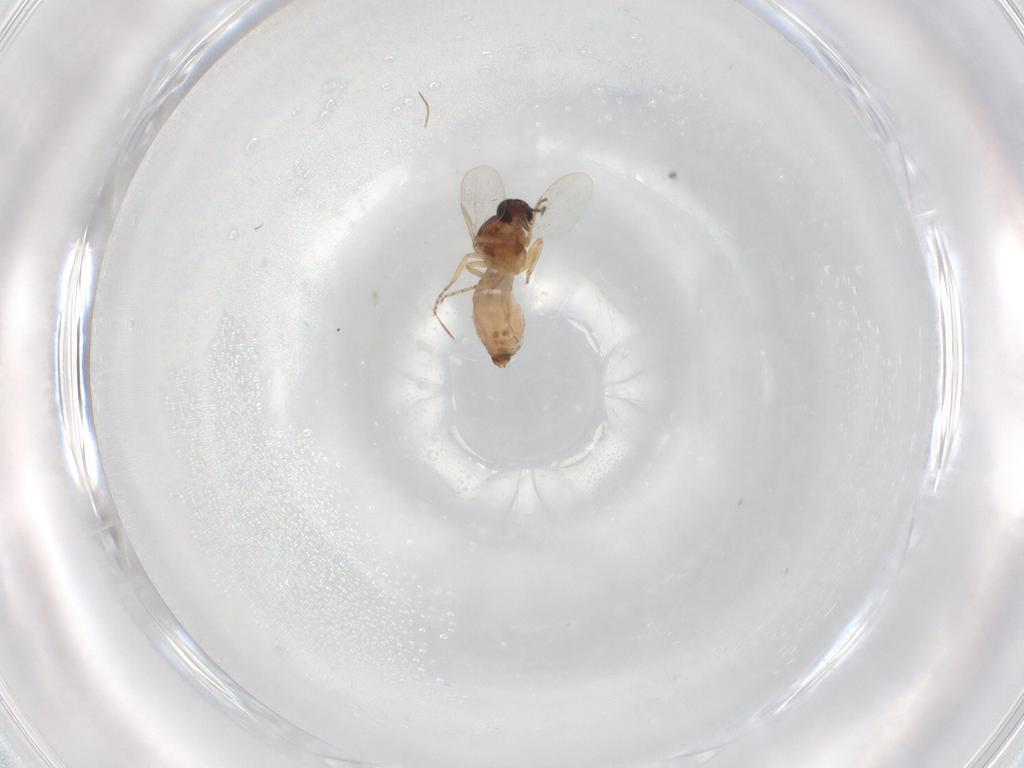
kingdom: Animalia
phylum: Arthropoda
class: Insecta
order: Diptera
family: Ceratopogonidae
